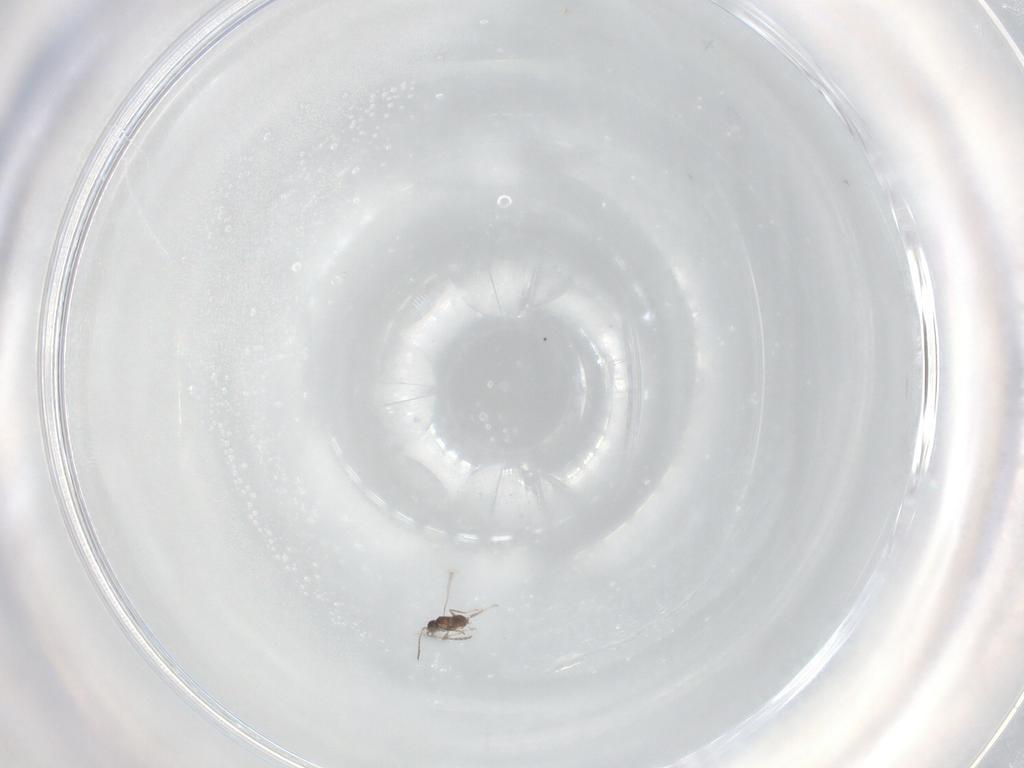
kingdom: Animalia
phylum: Arthropoda
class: Insecta
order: Hymenoptera
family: Scelionidae
